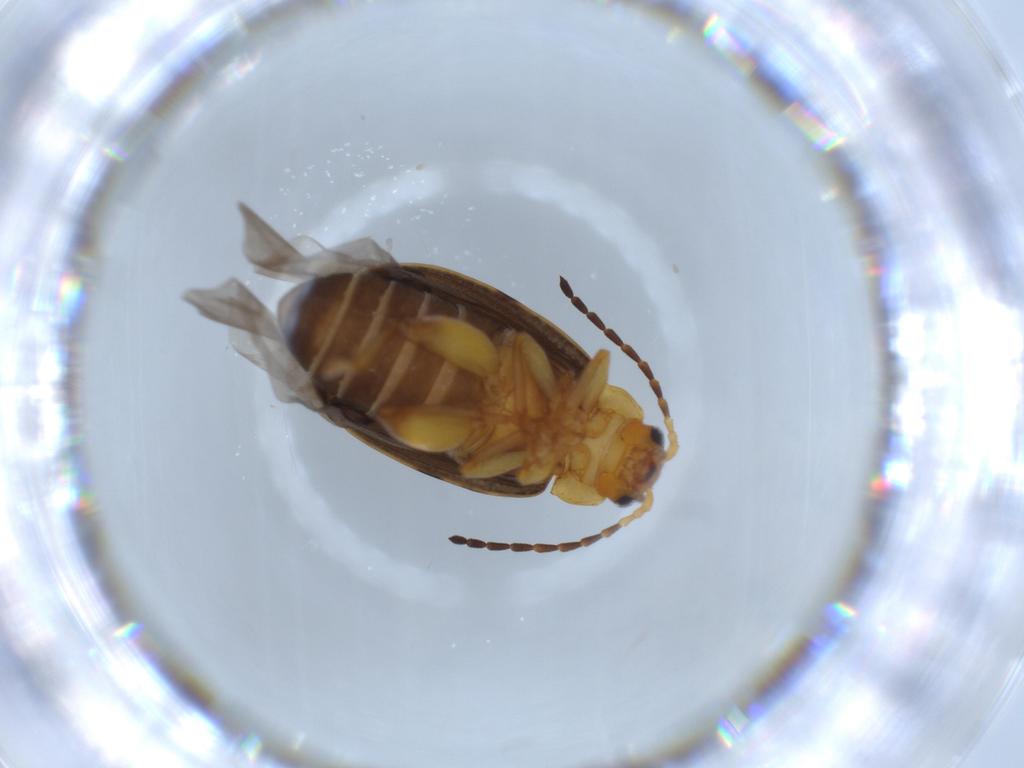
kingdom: Animalia
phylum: Arthropoda
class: Insecta
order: Coleoptera
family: Chrysomelidae
